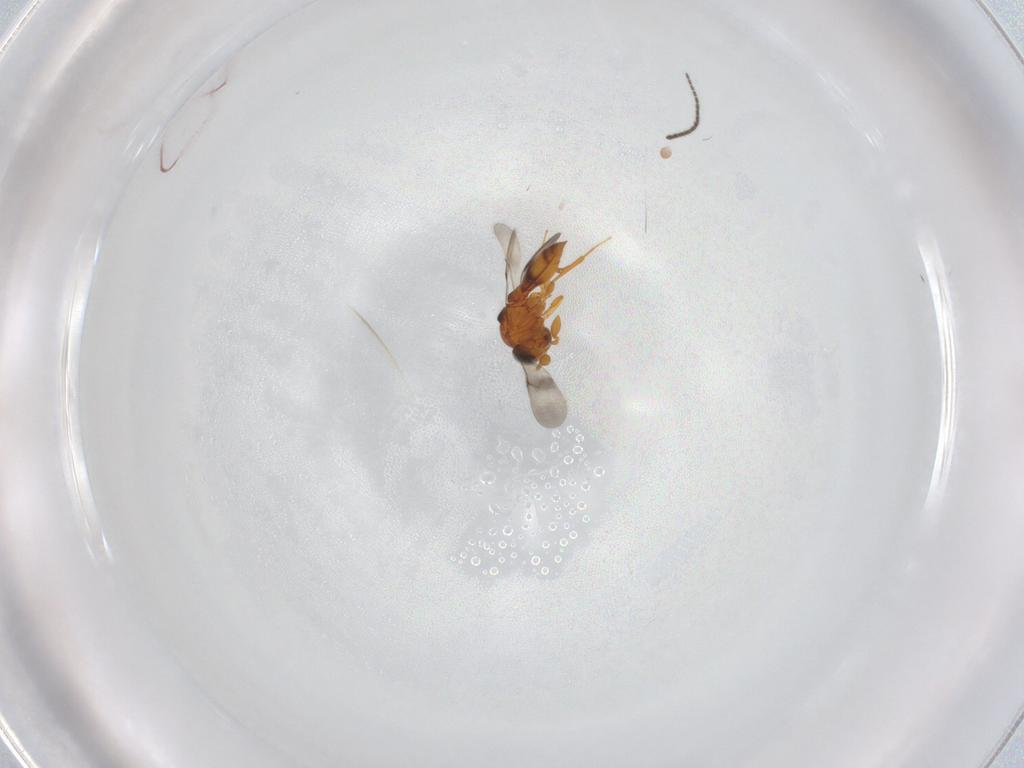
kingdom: Animalia
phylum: Arthropoda
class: Insecta
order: Hymenoptera
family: Scelionidae
